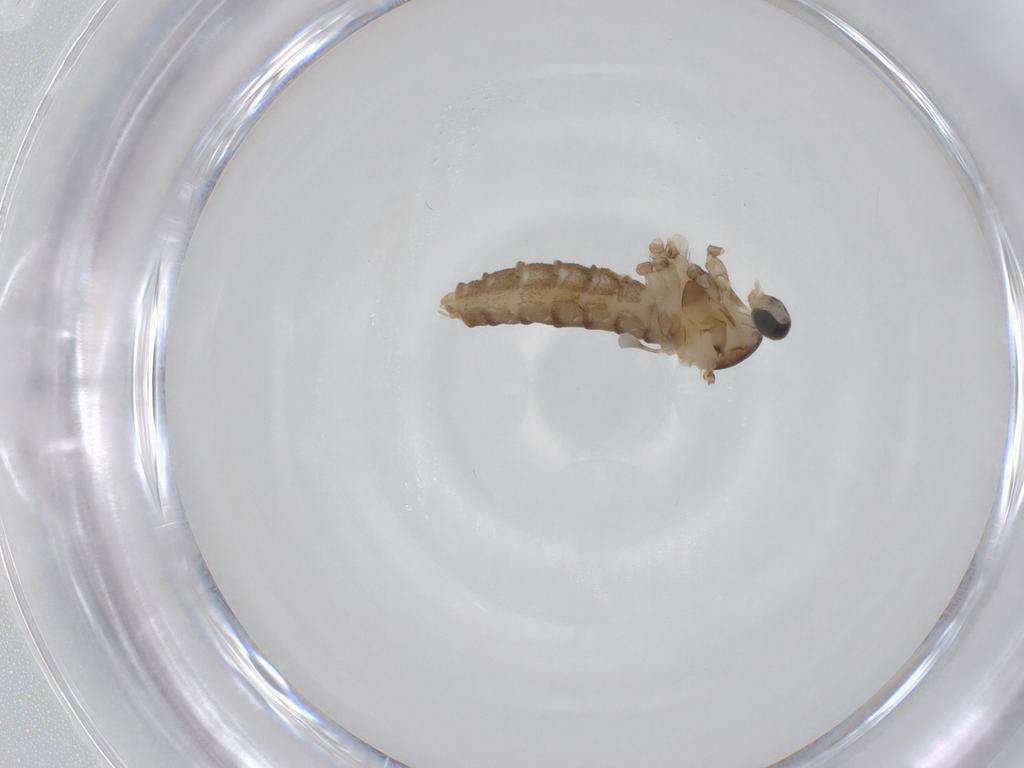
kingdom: Animalia
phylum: Arthropoda
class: Insecta
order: Diptera
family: Cecidomyiidae
